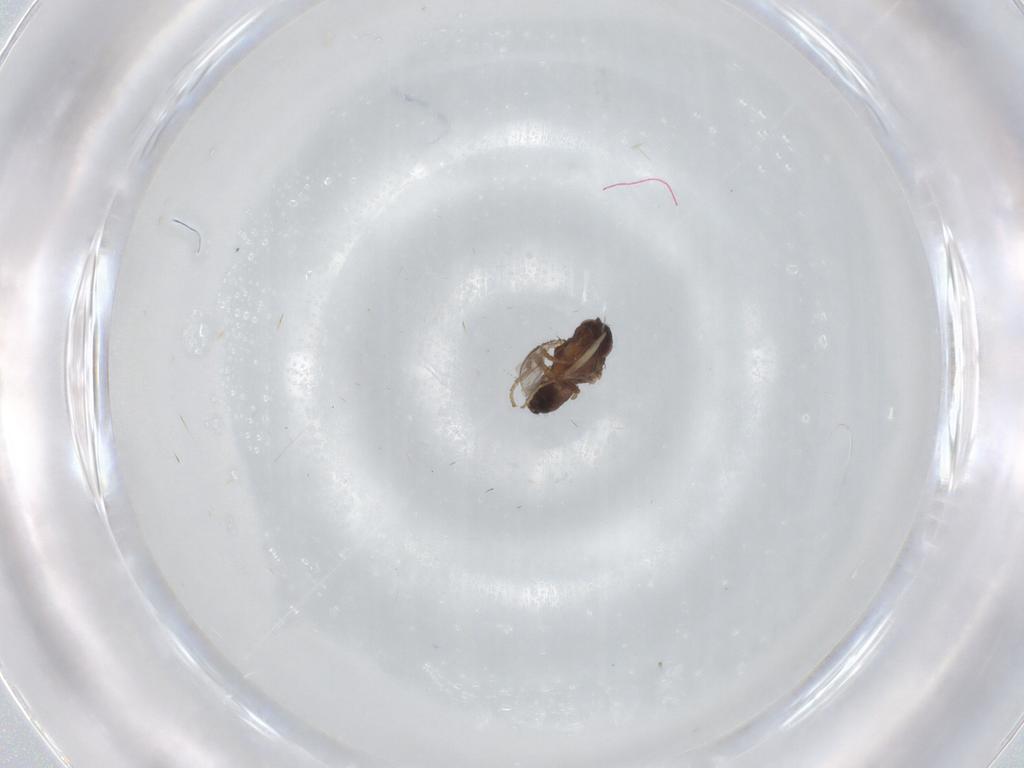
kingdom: Animalia
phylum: Arthropoda
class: Insecta
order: Diptera
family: Sphaeroceridae
